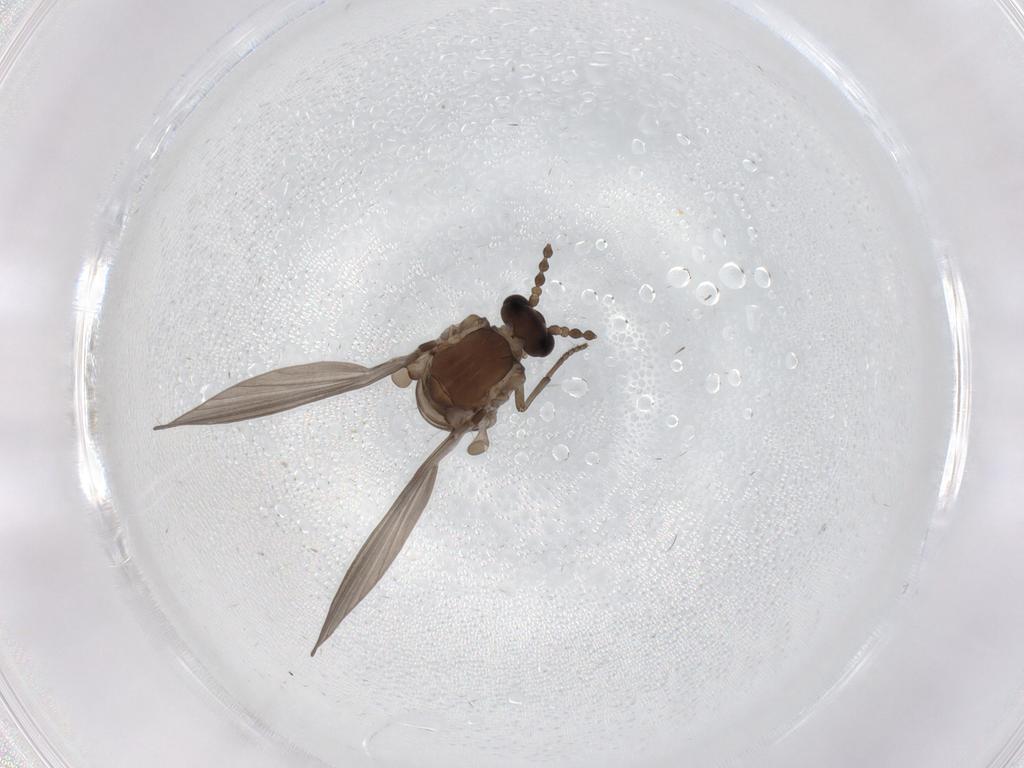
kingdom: Animalia
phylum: Arthropoda
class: Insecta
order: Diptera
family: Psychodidae
